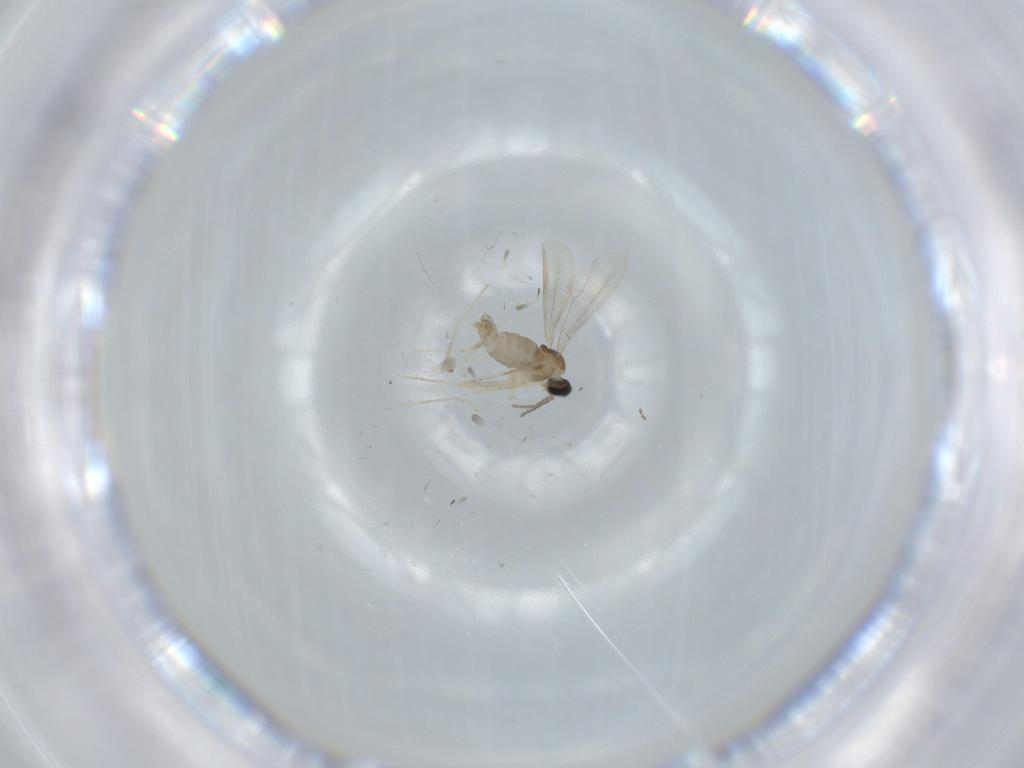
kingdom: Animalia
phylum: Arthropoda
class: Insecta
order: Diptera
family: Cecidomyiidae
